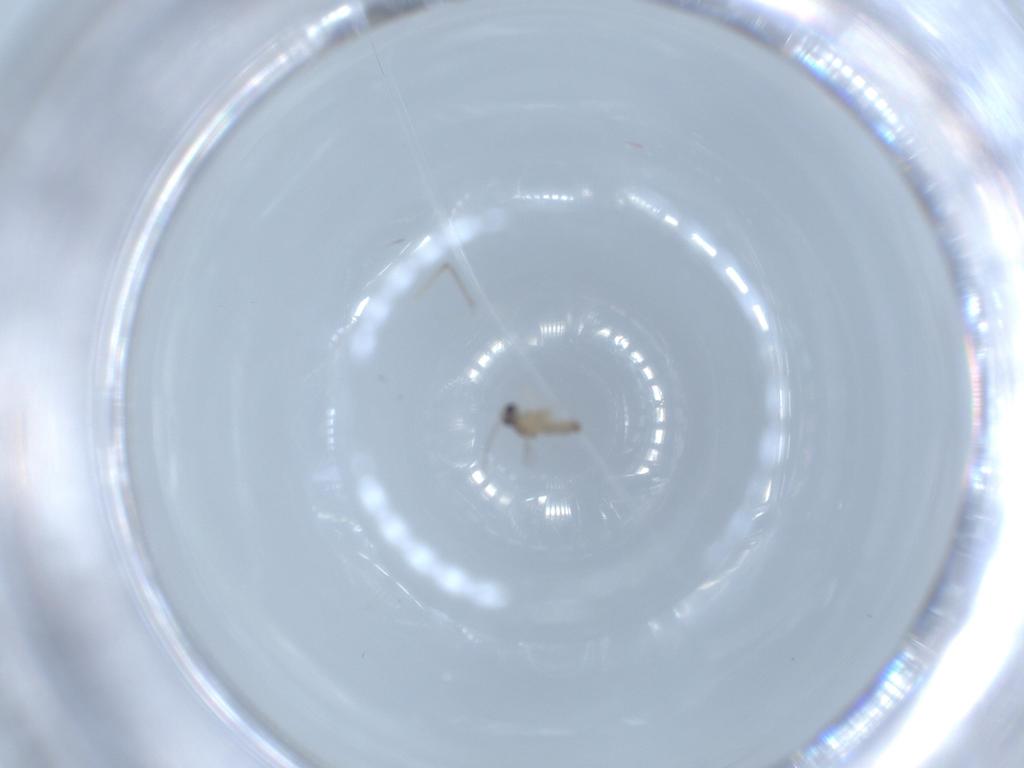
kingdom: Animalia
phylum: Arthropoda
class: Insecta
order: Diptera
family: Cecidomyiidae
